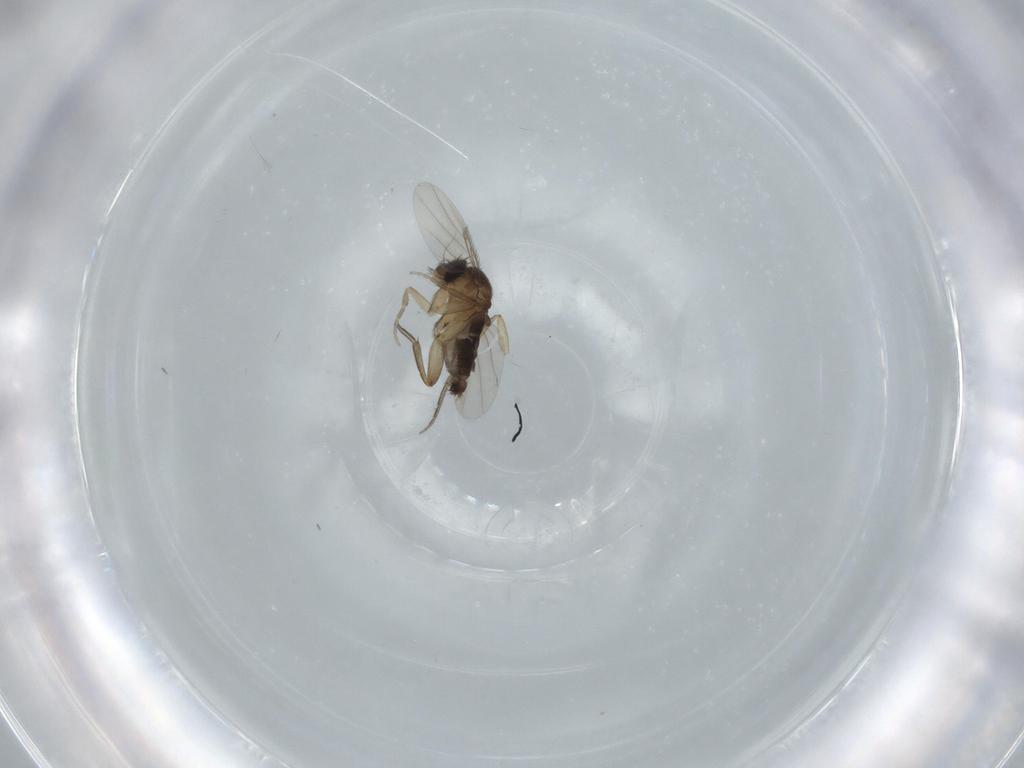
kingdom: Animalia
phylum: Arthropoda
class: Insecta
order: Diptera
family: Phoridae
